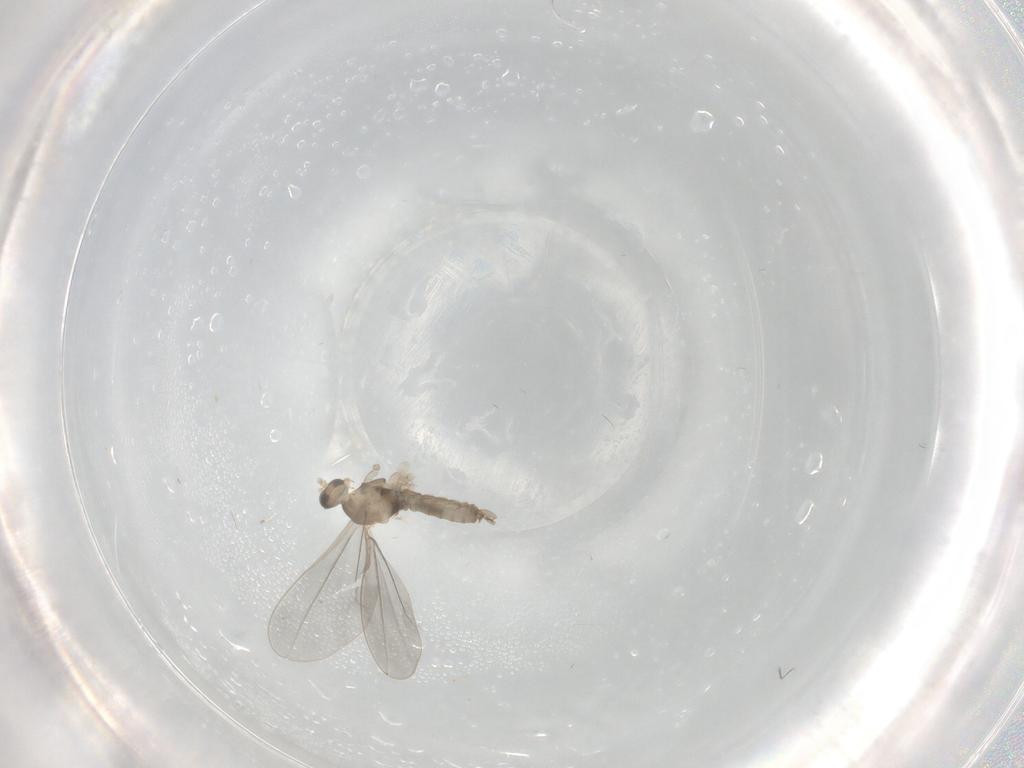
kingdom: Animalia
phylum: Arthropoda
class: Insecta
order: Diptera
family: Cecidomyiidae
